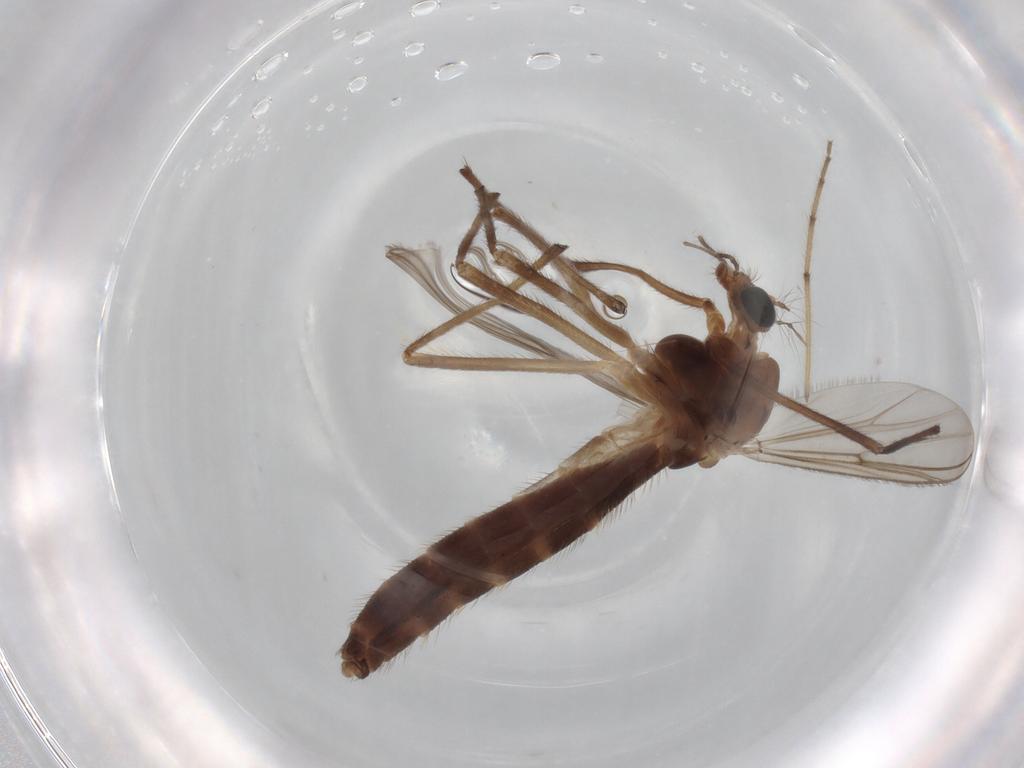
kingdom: Animalia
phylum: Arthropoda
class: Insecta
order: Diptera
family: Chironomidae
